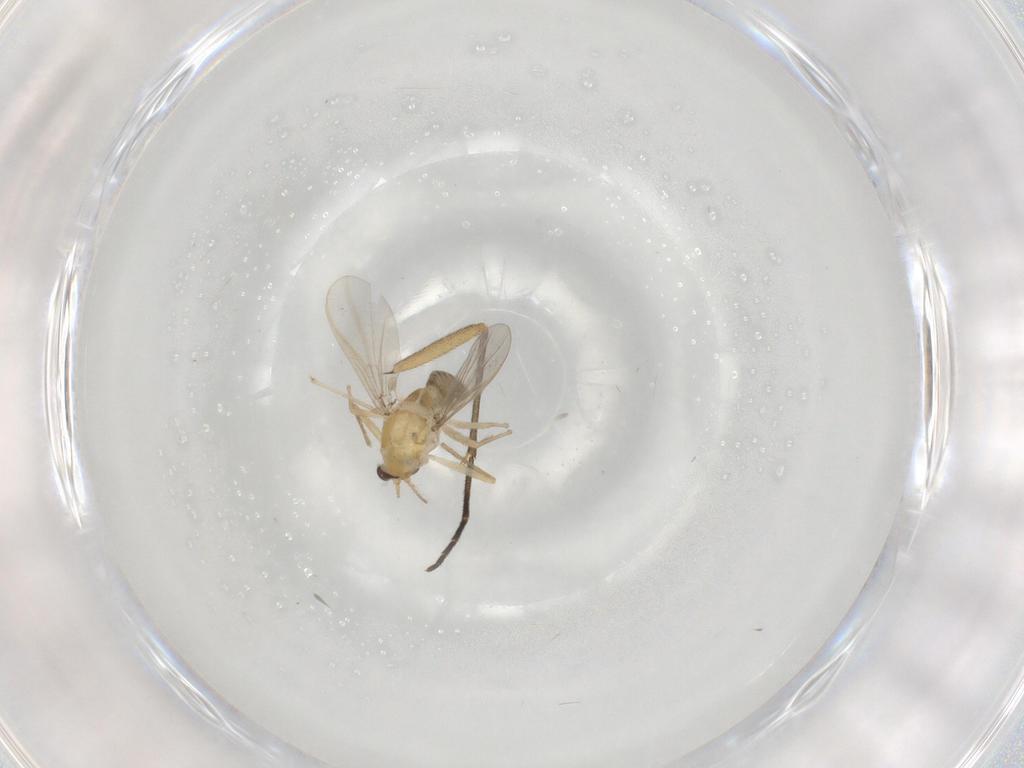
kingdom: Animalia
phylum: Arthropoda
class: Insecta
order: Diptera
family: Chironomidae
